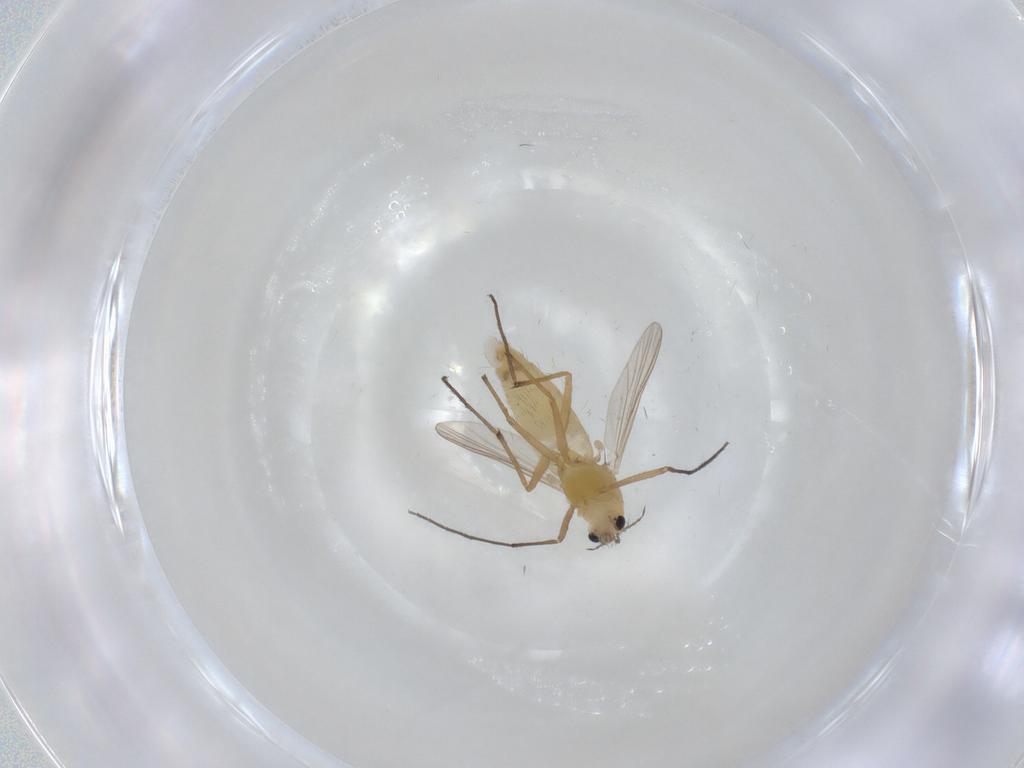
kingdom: Animalia
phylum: Arthropoda
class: Insecta
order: Diptera
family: Chironomidae
